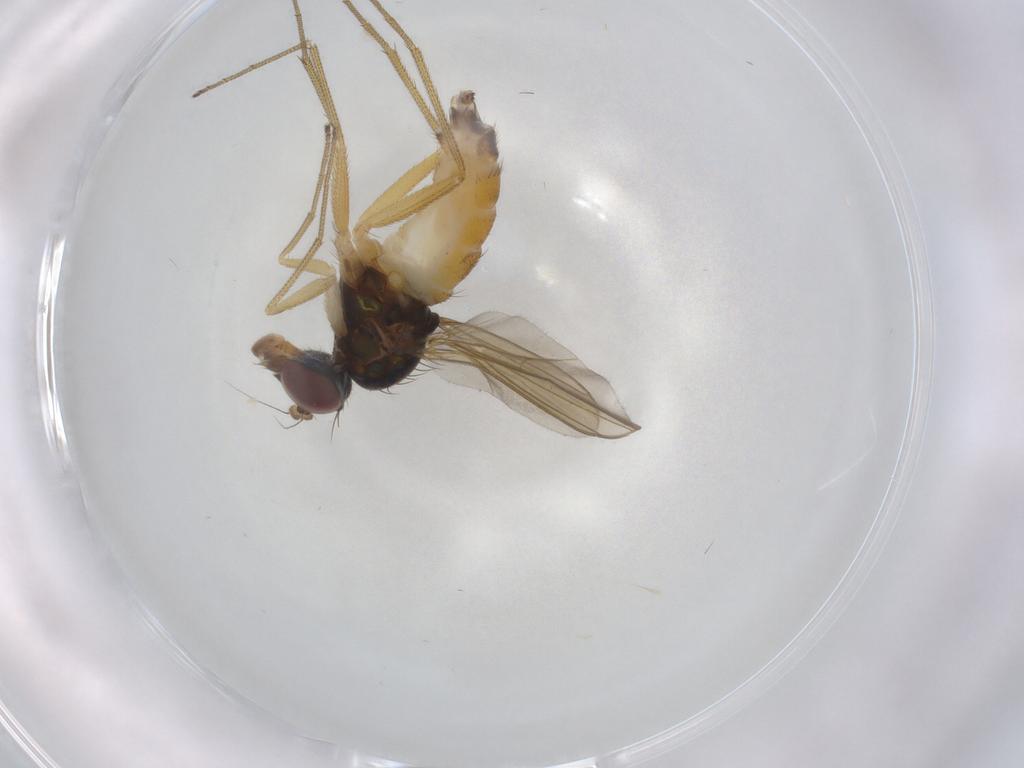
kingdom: Animalia
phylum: Arthropoda
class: Insecta
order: Diptera
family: Dolichopodidae
